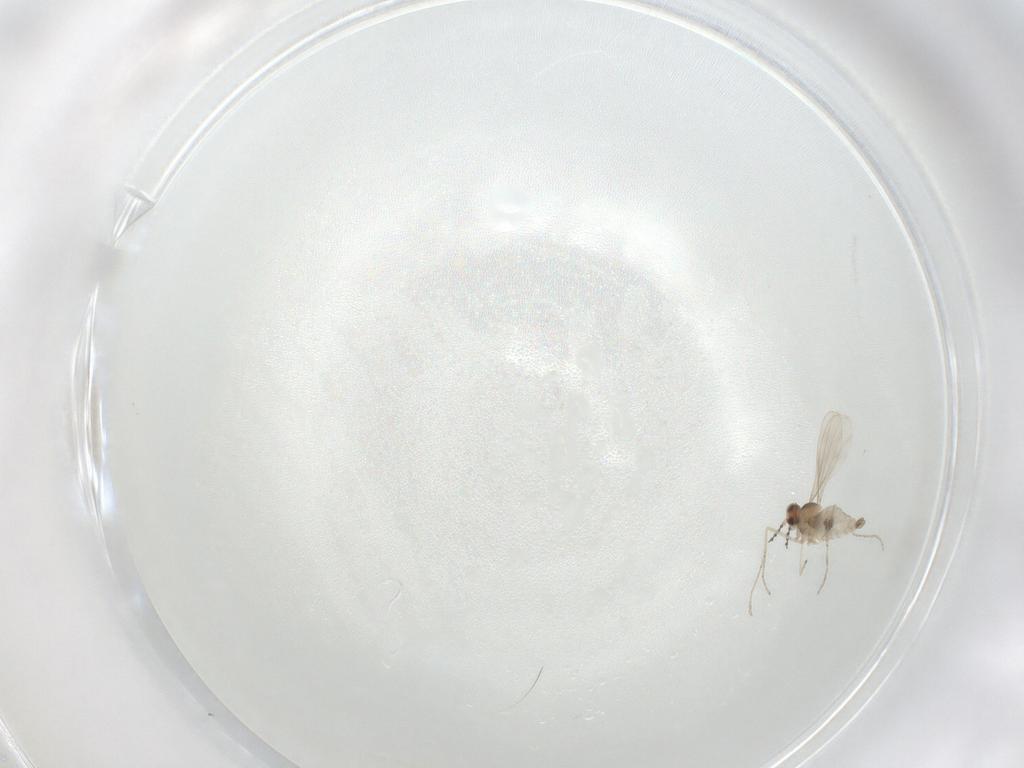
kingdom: Animalia
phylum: Arthropoda
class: Insecta
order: Diptera
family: Cecidomyiidae
